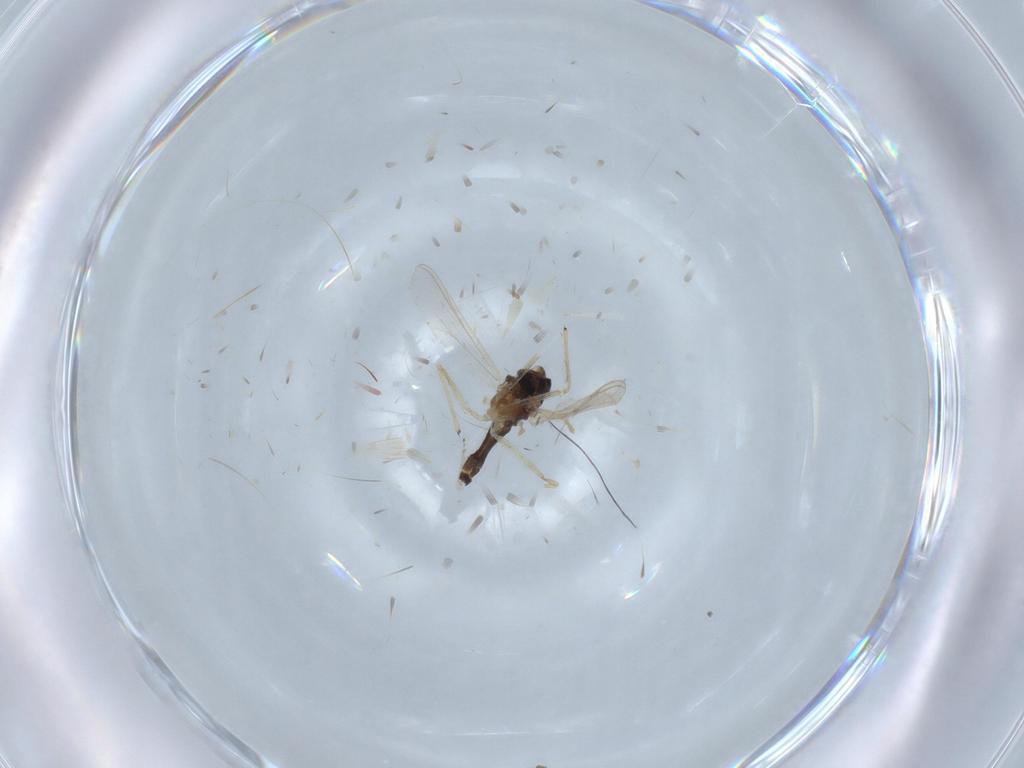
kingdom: Animalia
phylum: Arthropoda
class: Insecta
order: Diptera
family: Chironomidae
